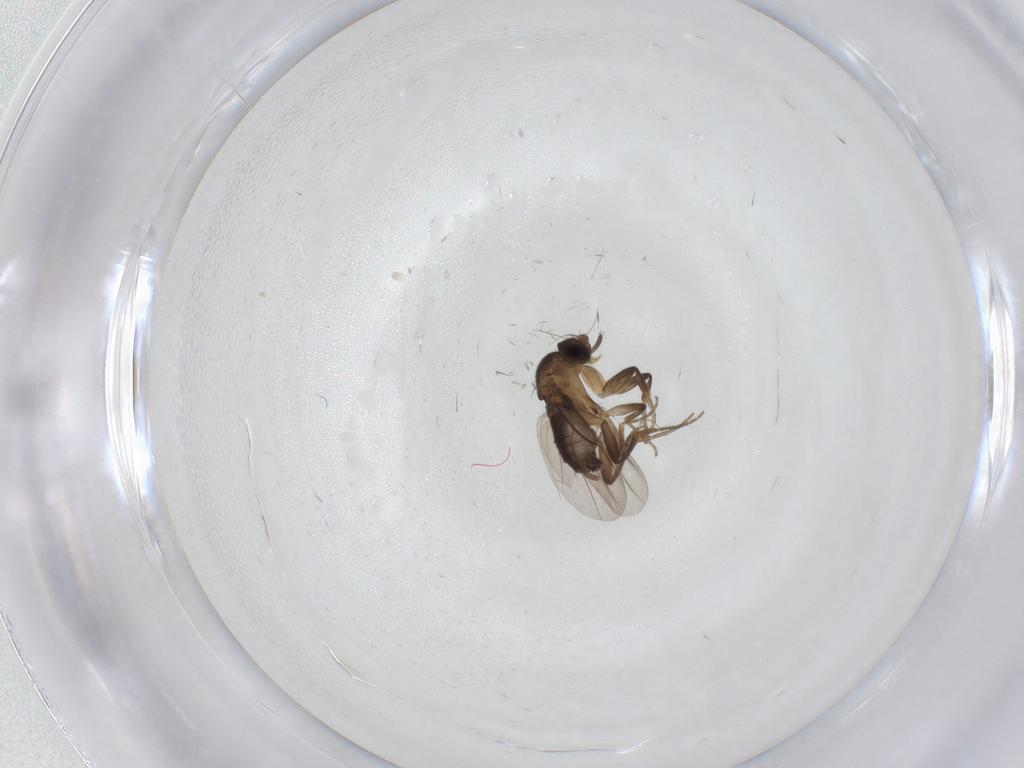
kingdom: Animalia
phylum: Arthropoda
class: Insecta
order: Diptera
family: Phoridae
